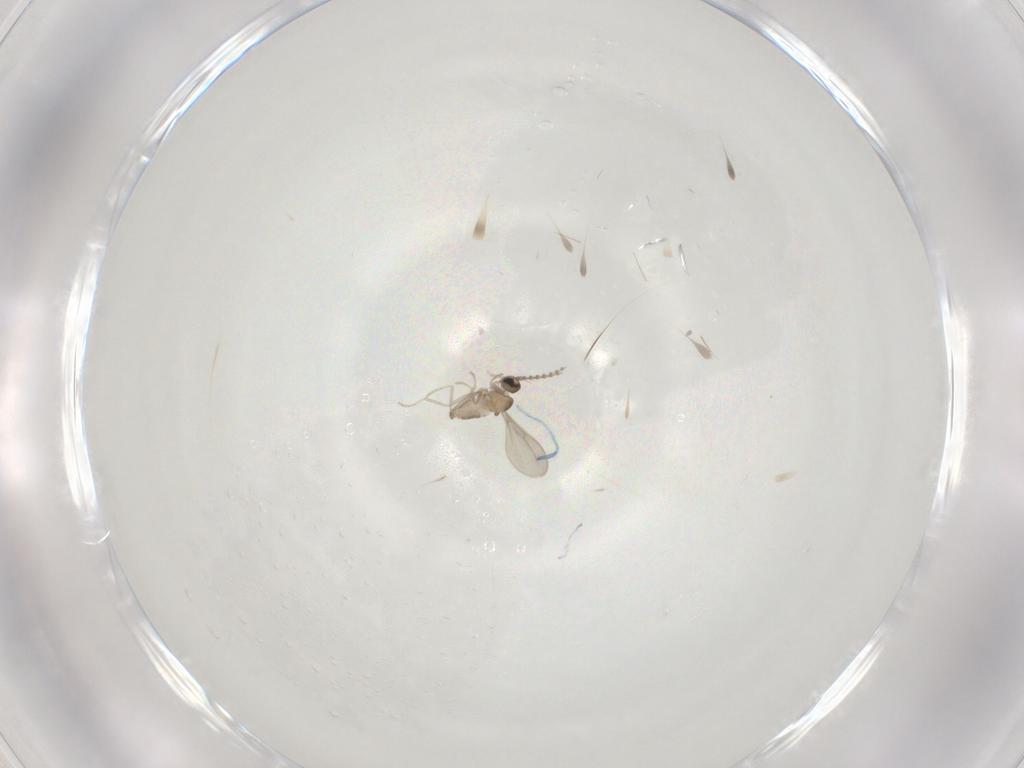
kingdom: Animalia
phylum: Arthropoda
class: Insecta
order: Diptera
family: Cecidomyiidae
